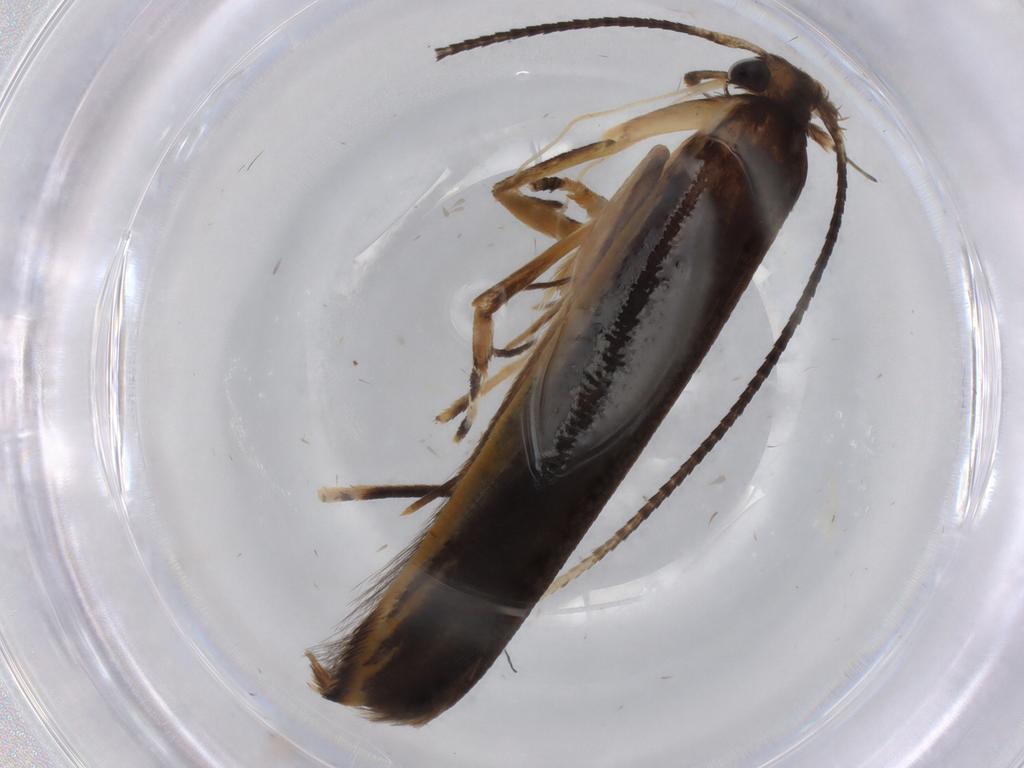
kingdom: Animalia
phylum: Arthropoda
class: Insecta
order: Lepidoptera
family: Pterolonchidae
